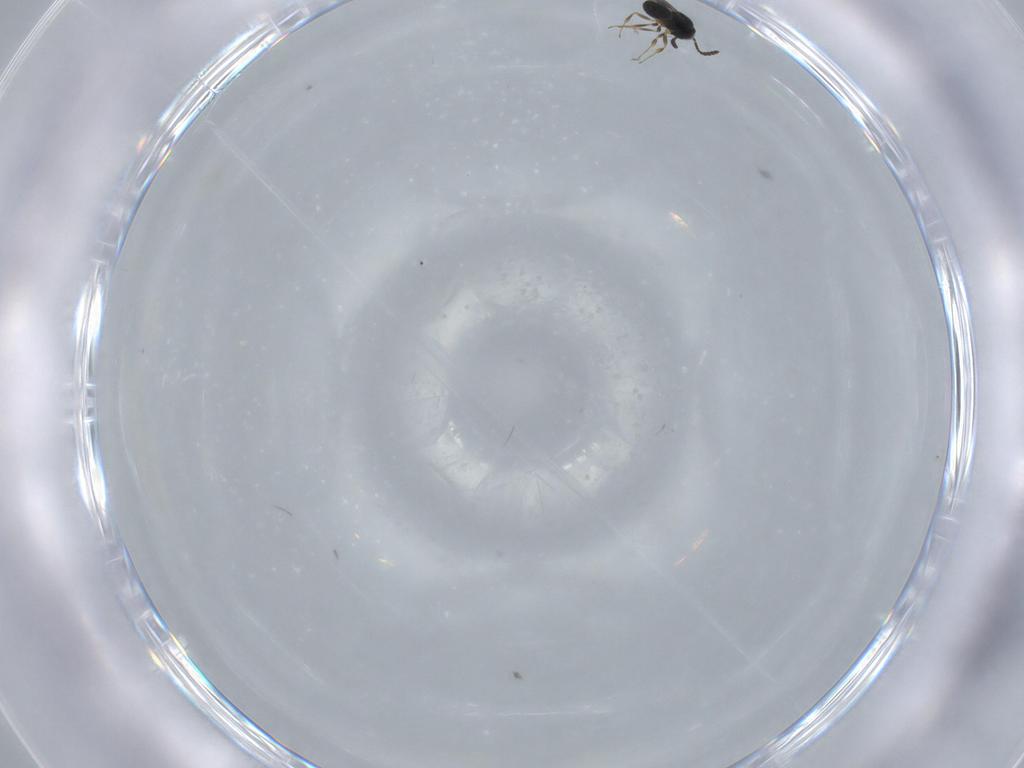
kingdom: Animalia
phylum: Arthropoda
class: Insecta
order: Hymenoptera
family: Scelionidae
